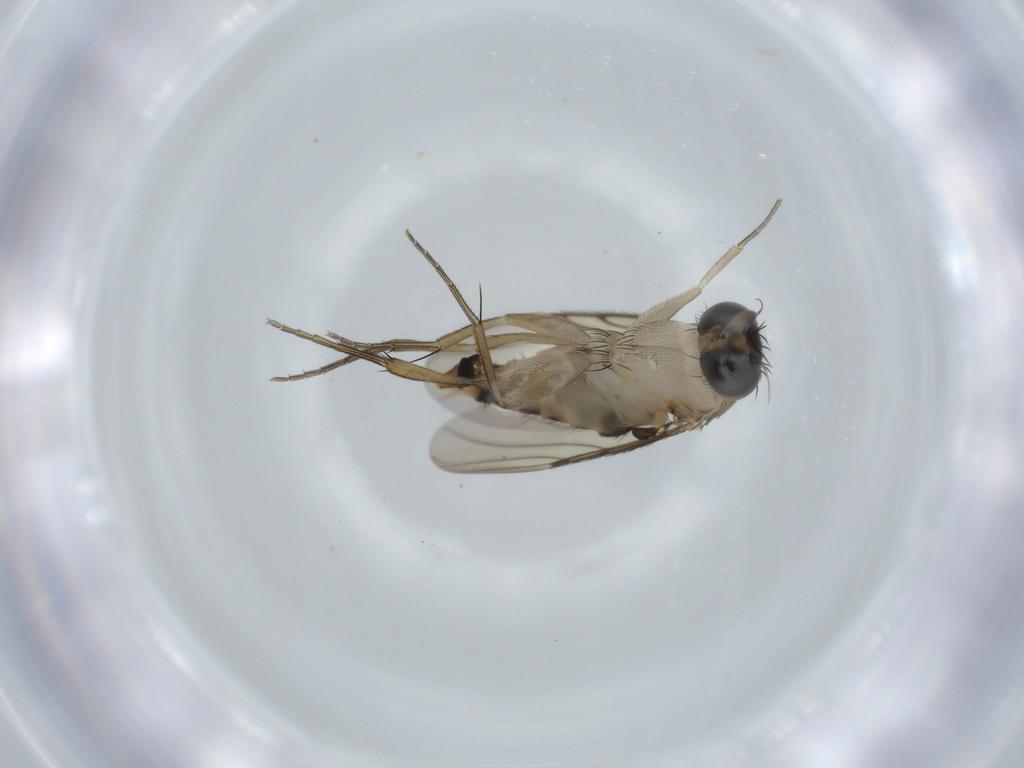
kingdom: Animalia
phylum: Arthropoda
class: Insecta
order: Diptera
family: Phoridae
